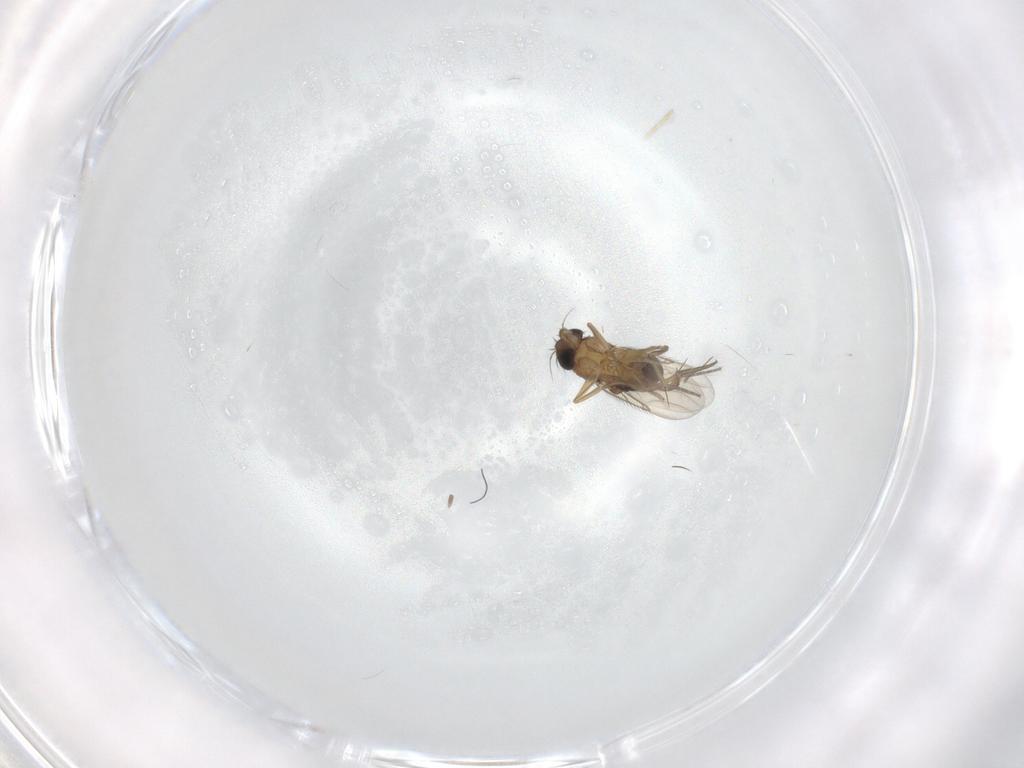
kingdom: Animalia
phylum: Arthropoda
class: Insecta
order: Diptera
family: Phoridae
